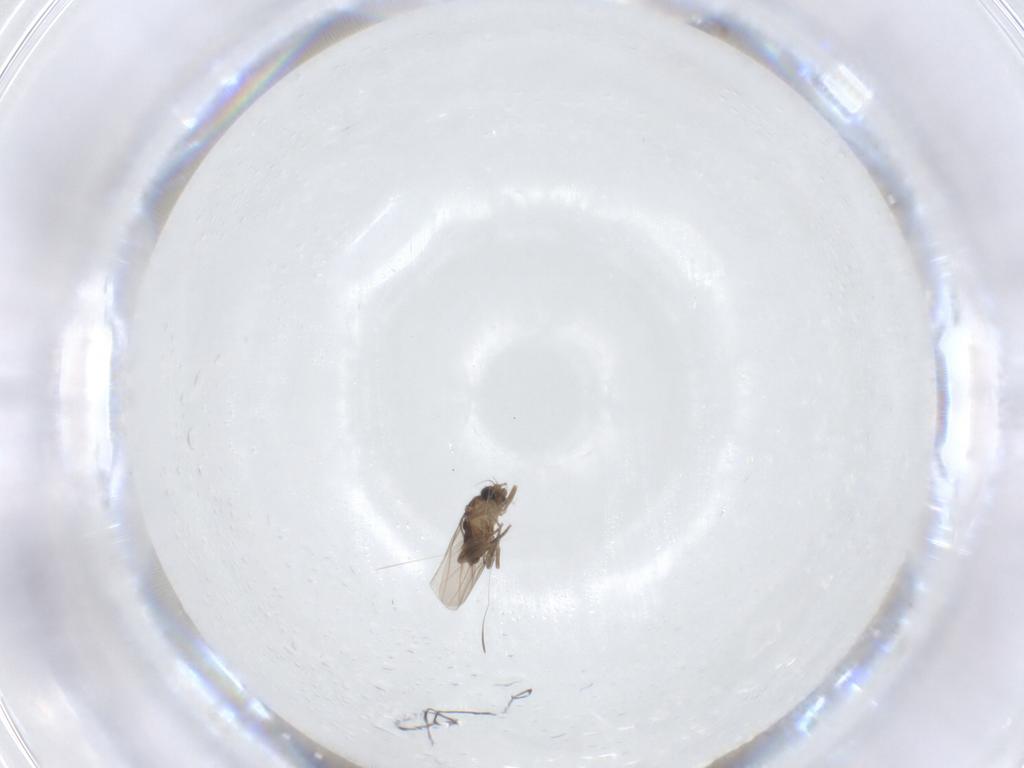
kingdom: Animalia
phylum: Arthropoda
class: Insecta
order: Diptera
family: Phoridae
